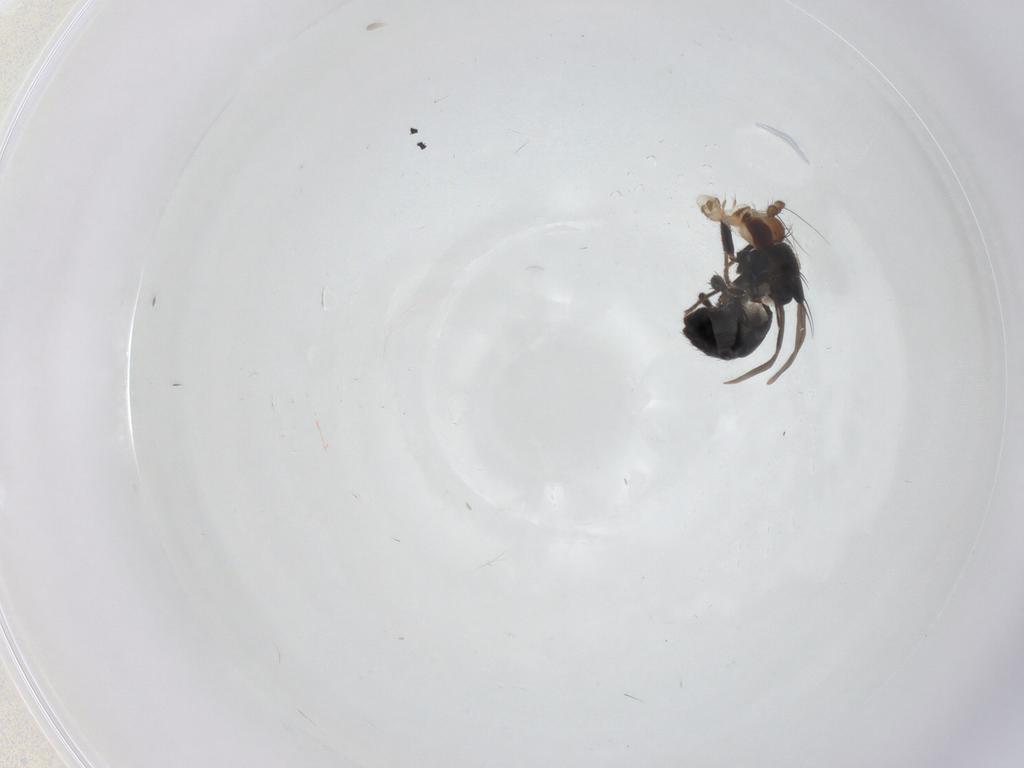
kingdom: Animalia
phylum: Arthropoda
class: Insecta
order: Diptera
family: Sphaeroceridae
